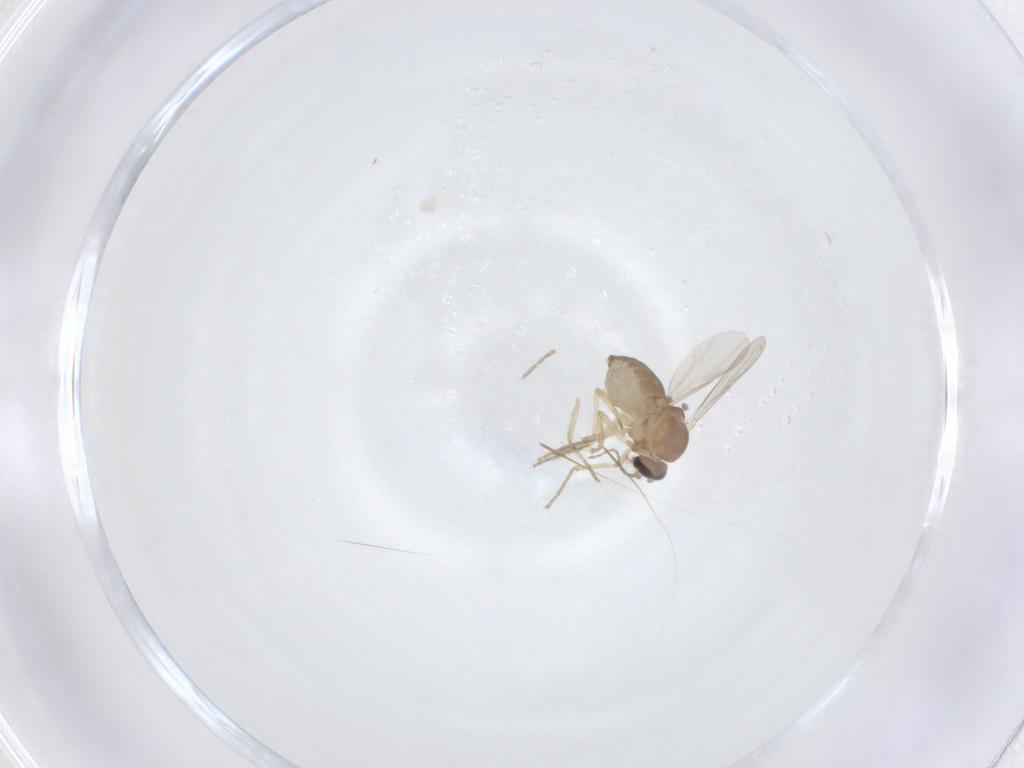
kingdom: Animalia
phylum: Arthropoda
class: Insecta
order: Diptera
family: Ceratopogonidae
